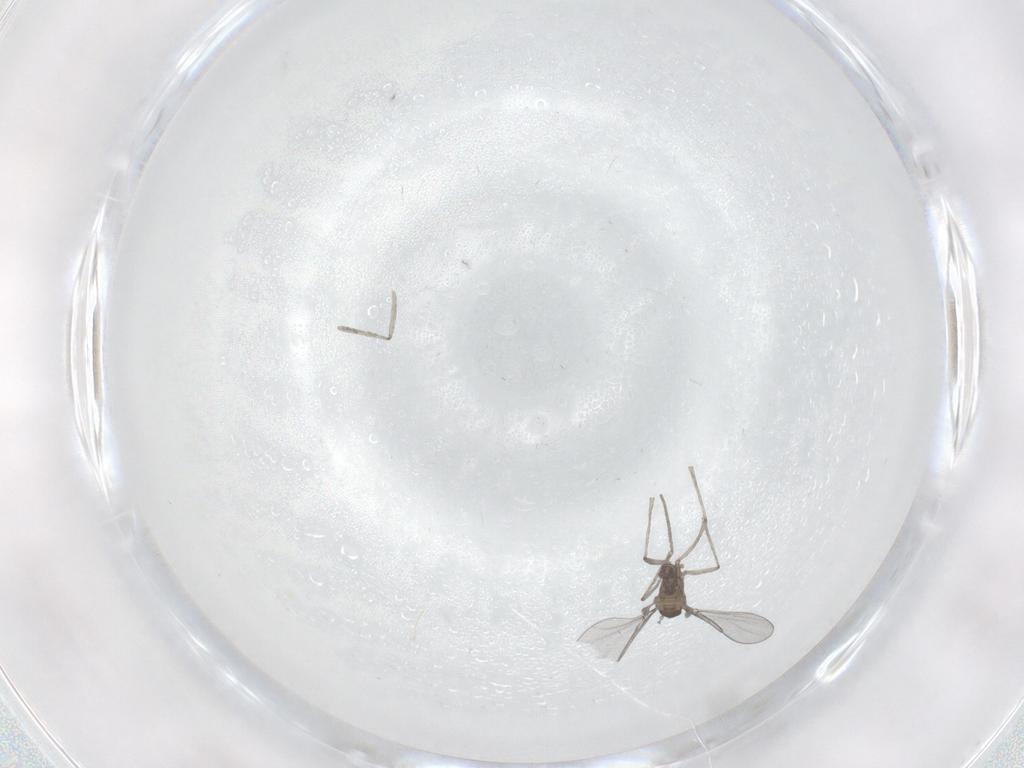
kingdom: Animalia
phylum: Arthropoda
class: Insecta
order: Diptera
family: Cecidomyiidae
